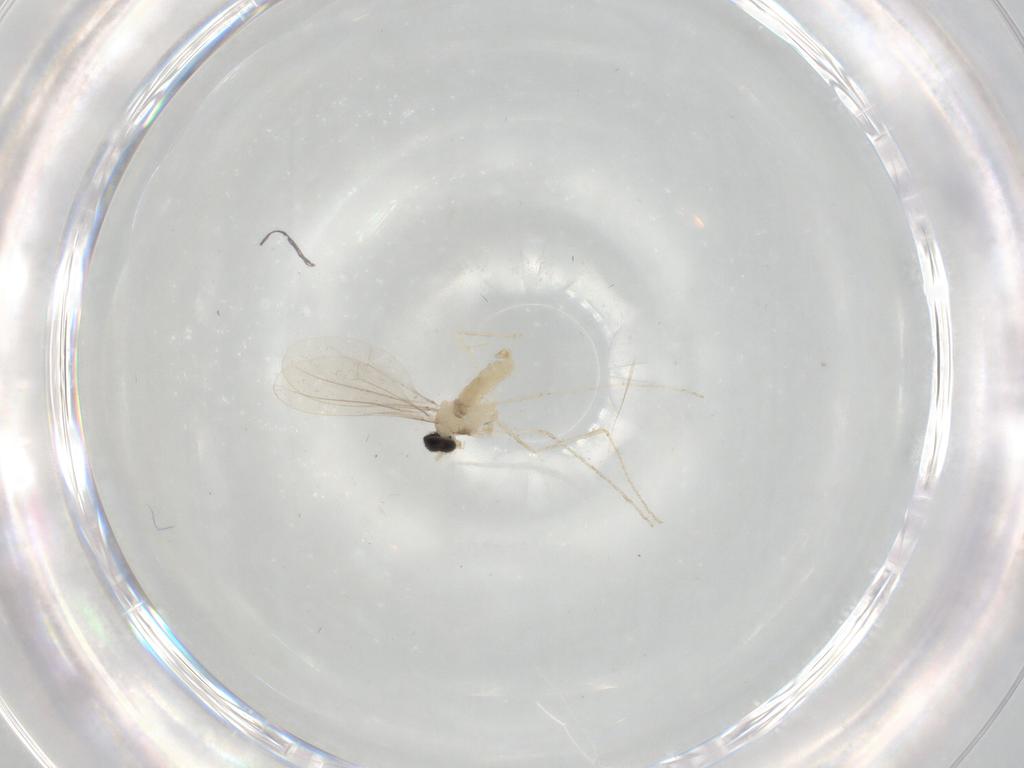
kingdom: Animalia
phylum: Arthropoda
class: Insecta
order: Diptera
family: Cecidomyiidae
